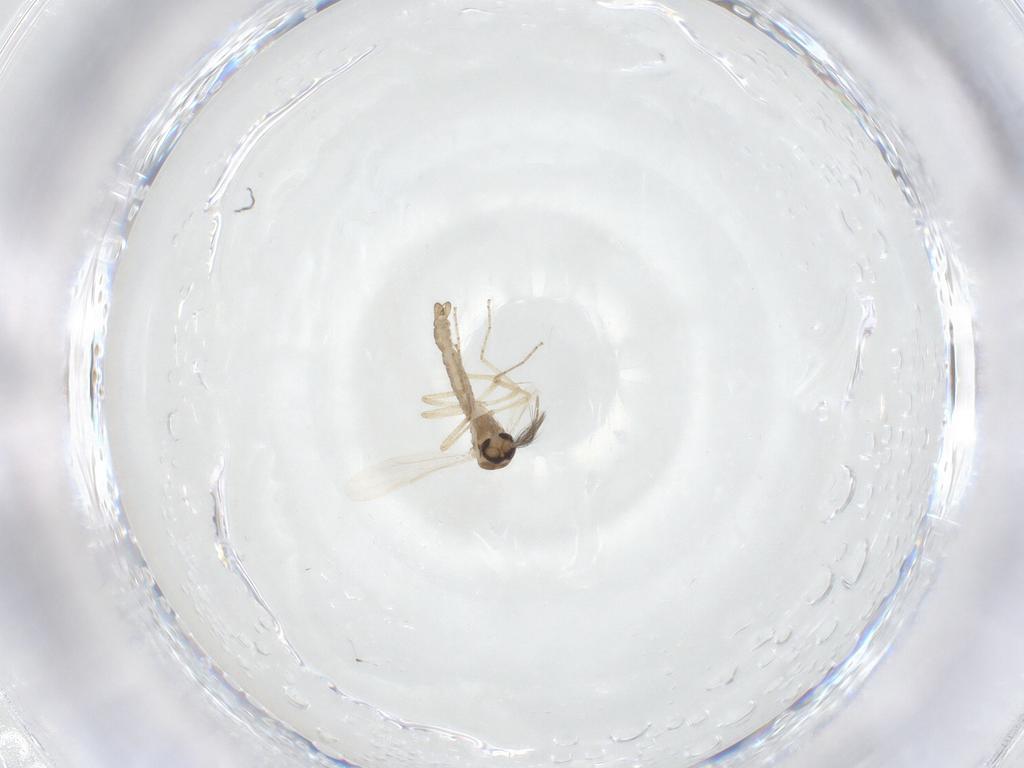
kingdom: Animalia
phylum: Arthropoda
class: Insecta
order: Diptera
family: Ceratopogonidae
